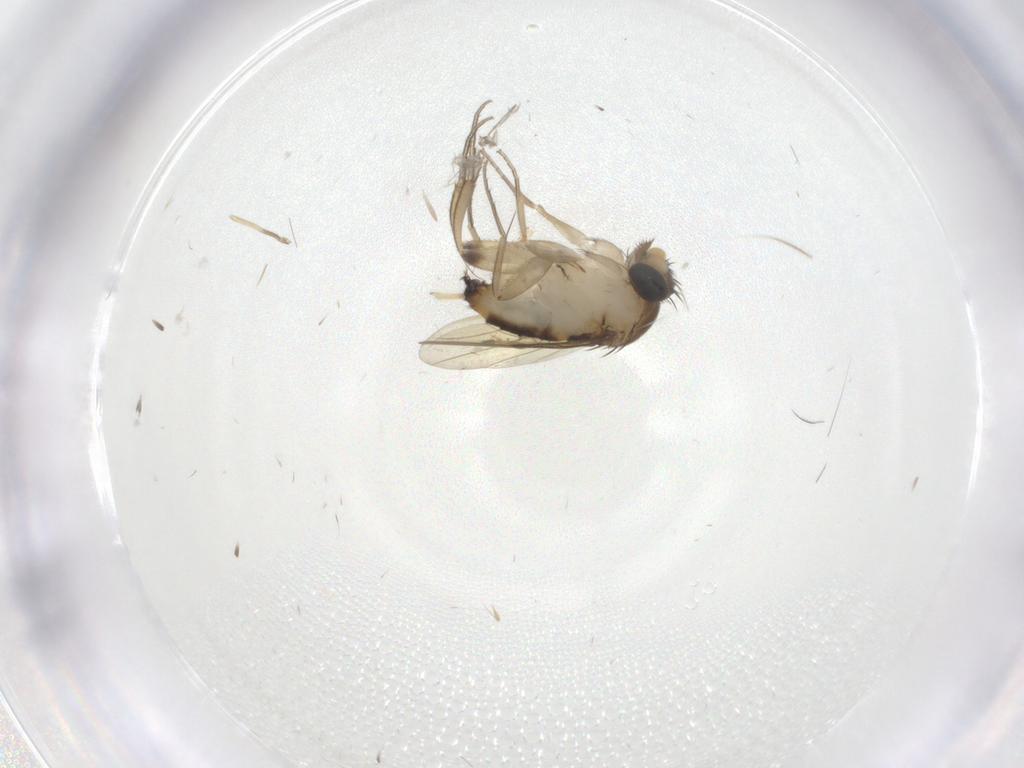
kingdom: Animalia
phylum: Arthropoda
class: Insecta
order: Diptera
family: Phoridae
